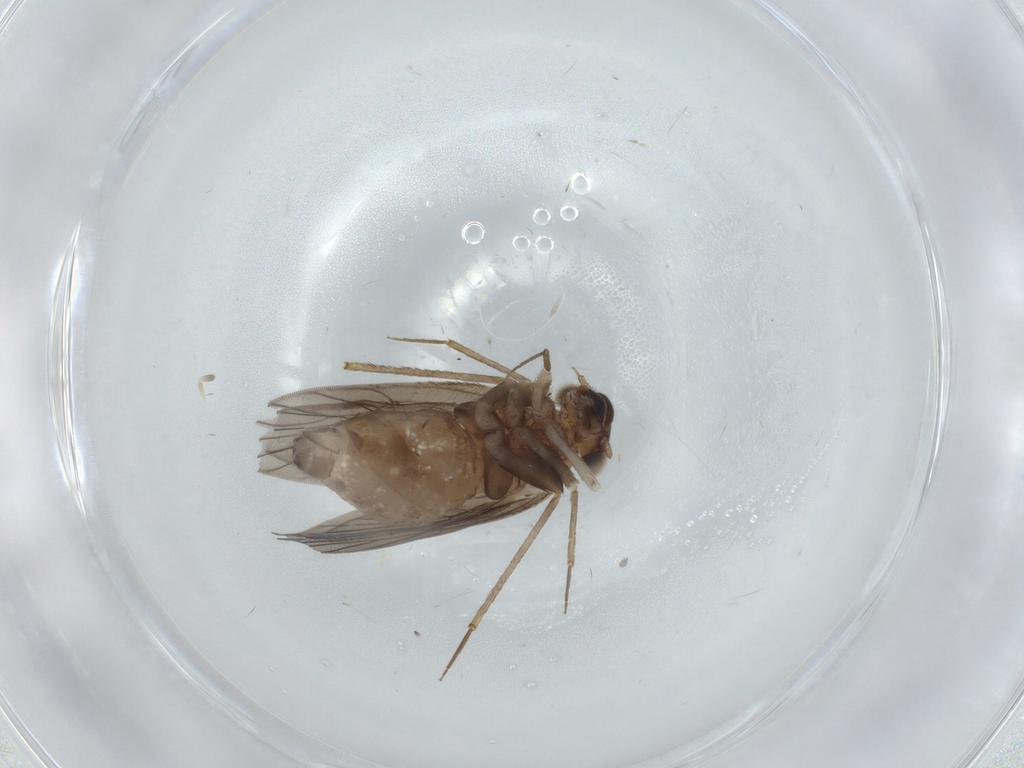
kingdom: Animalia
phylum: Arthropoda
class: Insecta
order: Psocodea
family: Lepidopsocidae
